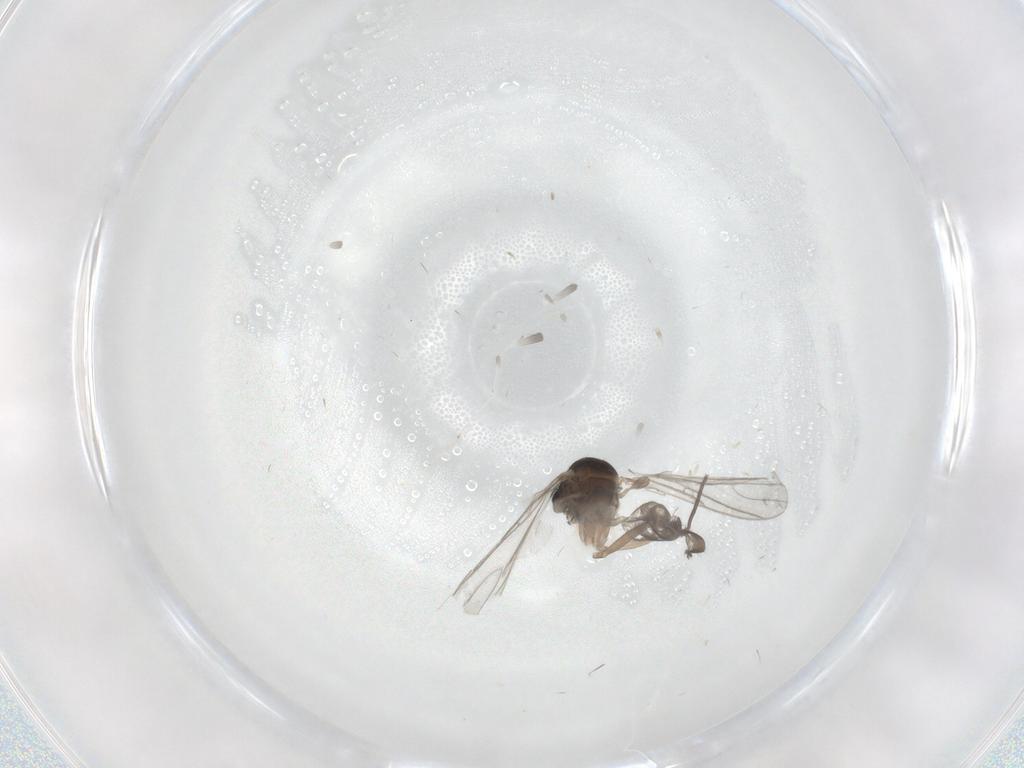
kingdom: Animalia
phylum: Arthropoda
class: Insecta
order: Diptera
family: Sciaridae
